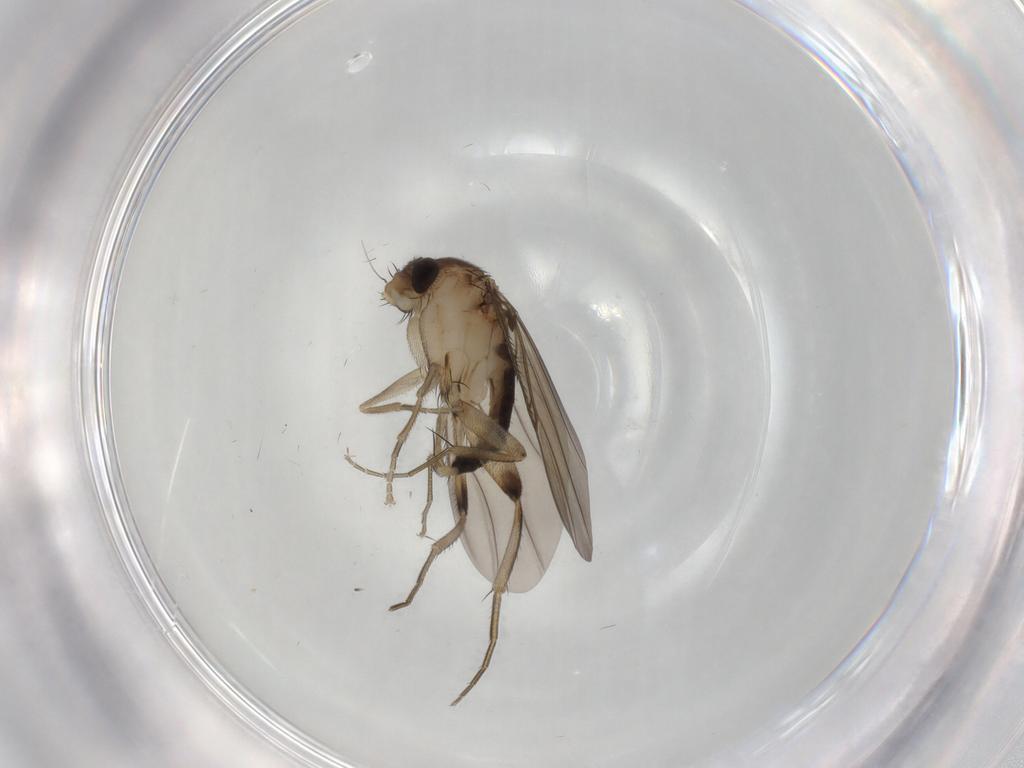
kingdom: Animalia
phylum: Arthropoda
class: Insecta
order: Diptera
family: Phoridae
